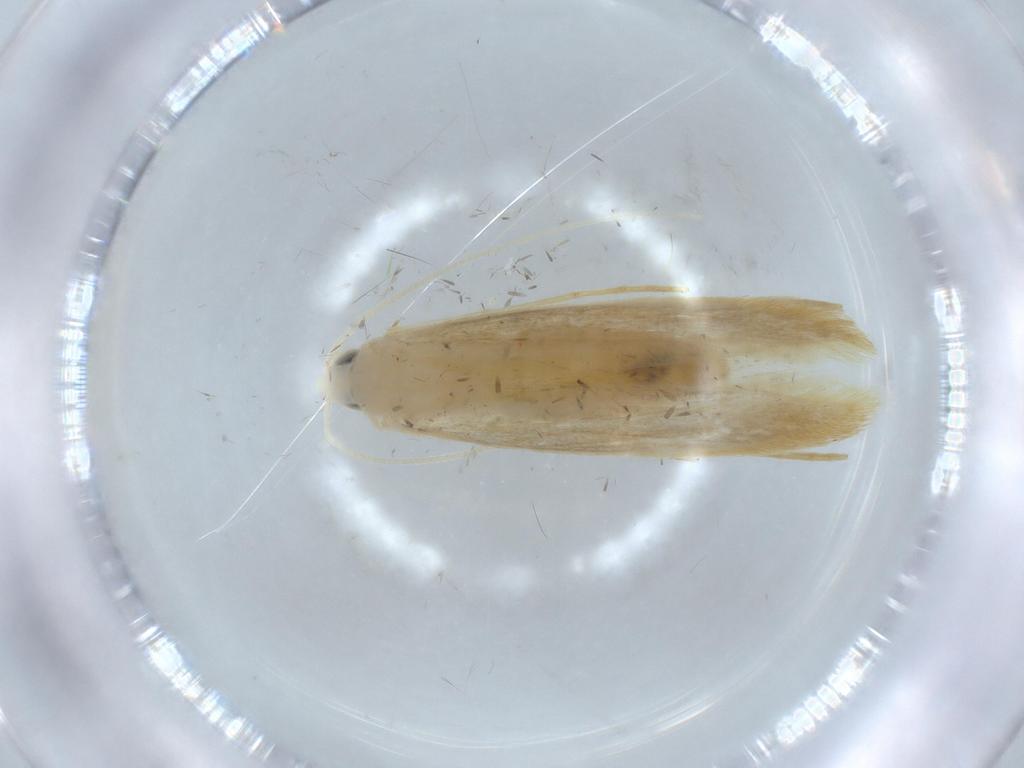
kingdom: Animalia
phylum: Arthropoda
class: Insecta
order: Lepidoptera
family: Lyonetiidae
